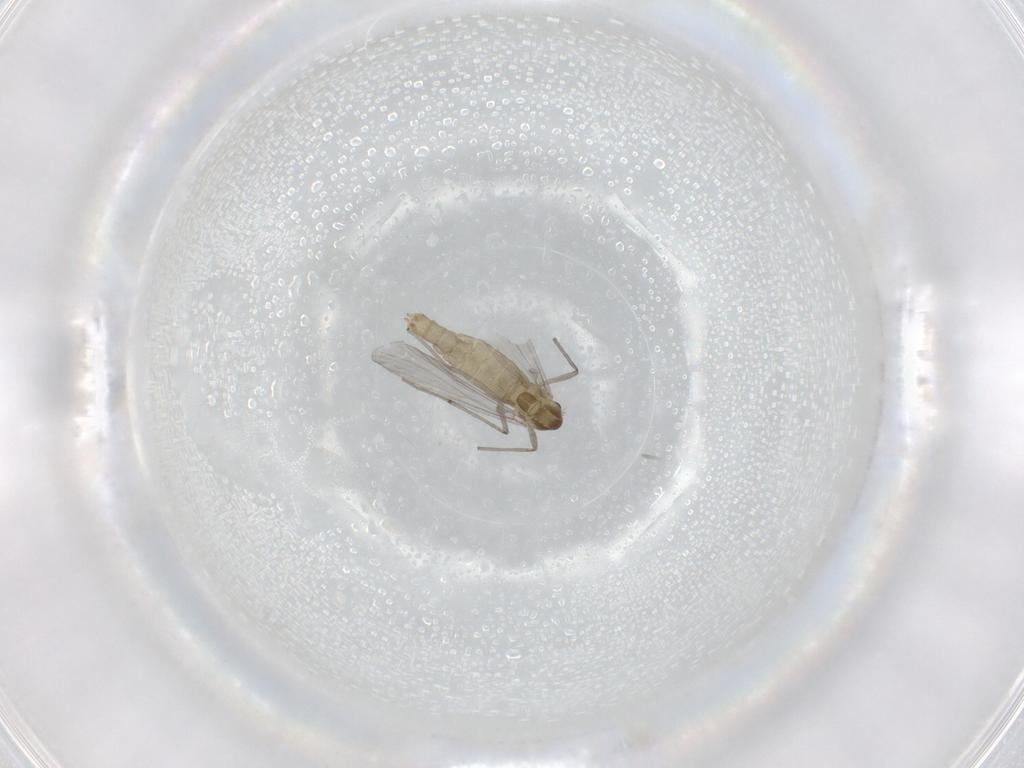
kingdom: Animalia
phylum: Arthropoda
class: Insecta
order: Diptera
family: Chironomidae
